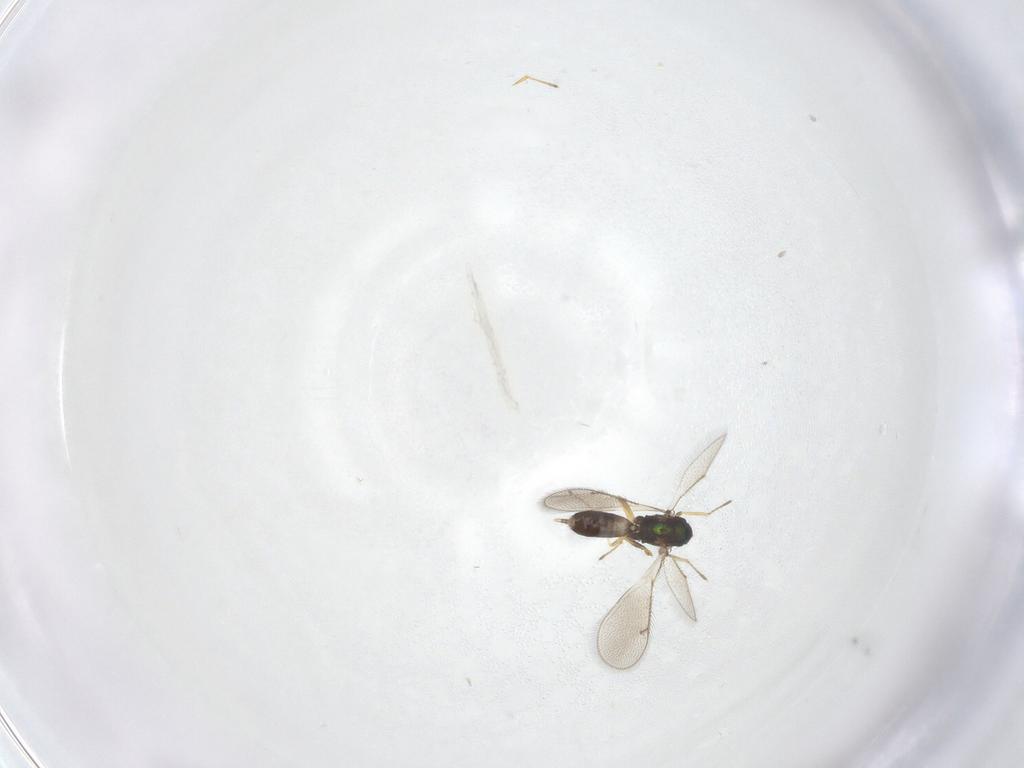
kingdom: Animalia
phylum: Arthropoda
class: Insecta
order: Hymenoptera
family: Eulophidae
